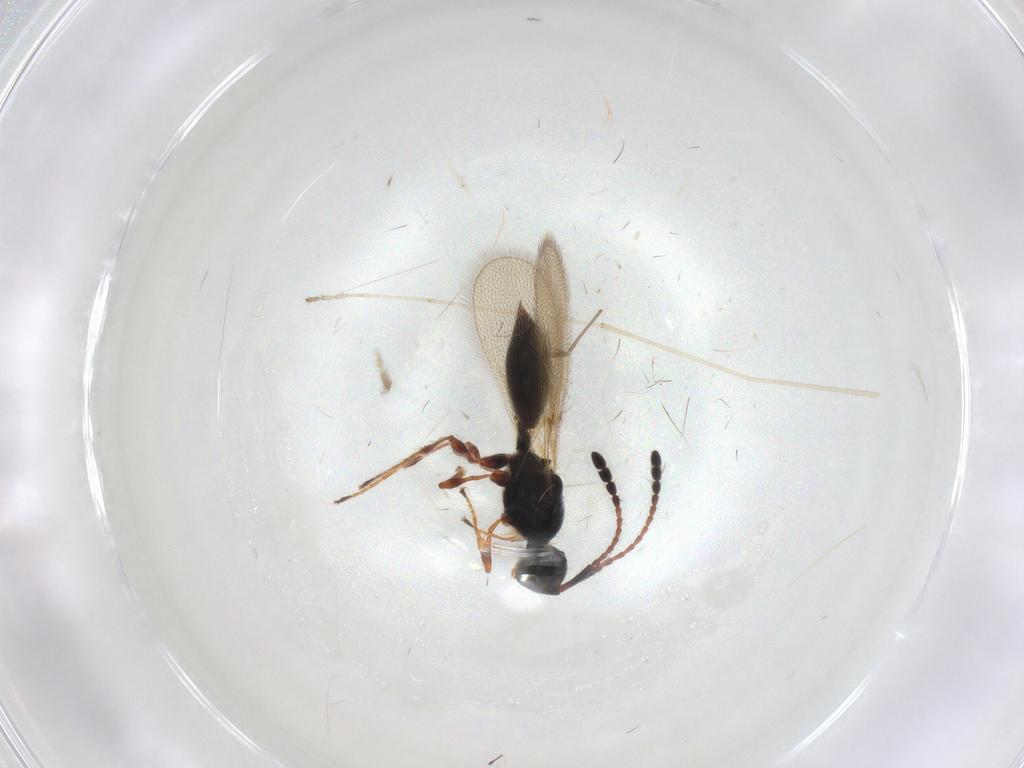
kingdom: Animalia
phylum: Arthropoda
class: Insecta
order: Hymenoptera
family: Diapriidae
